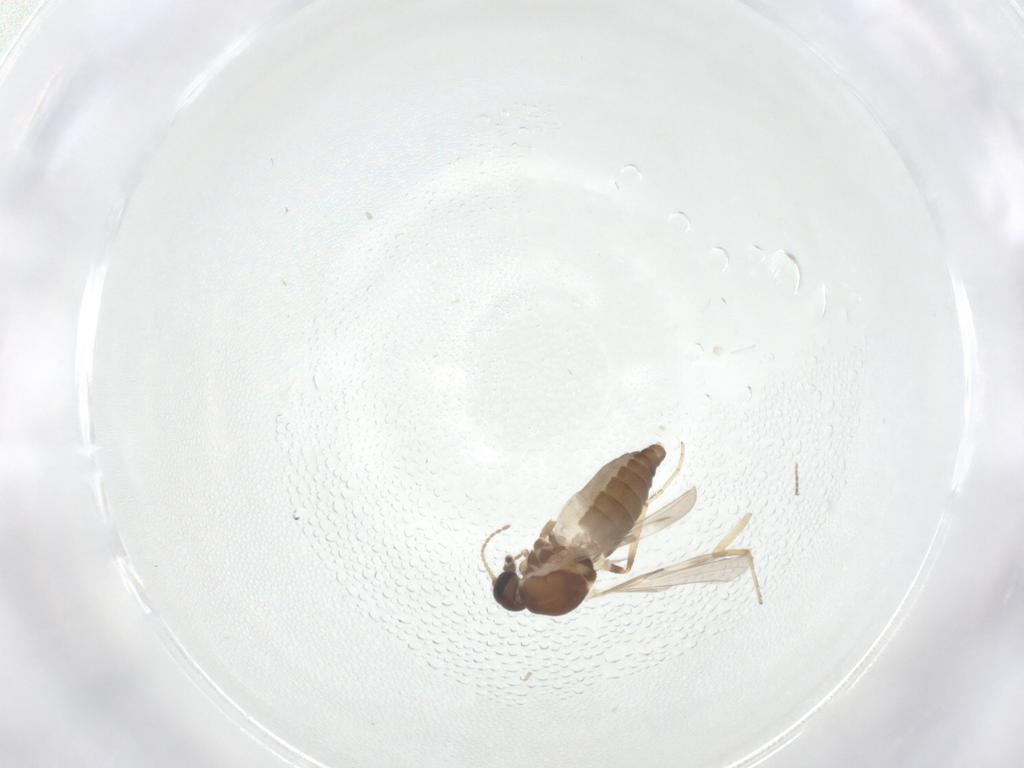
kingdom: Animalia
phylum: Arthropoda
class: Insecta
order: Diptera
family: Ceratopogonidae
